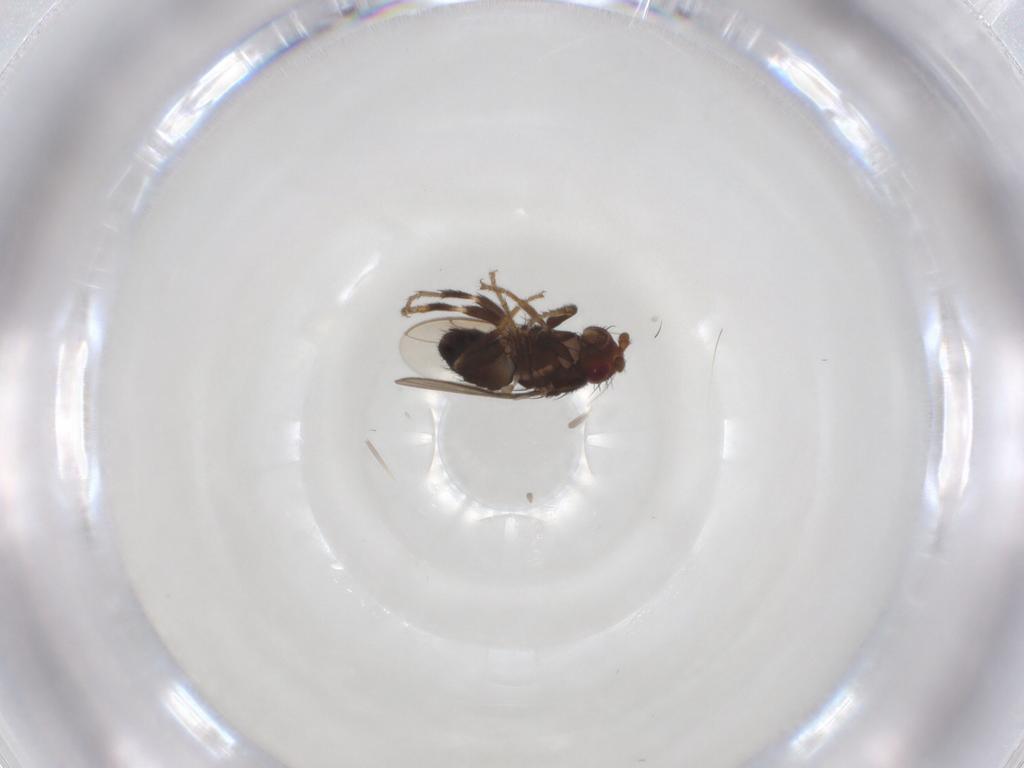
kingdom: Animalia
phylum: Arthropoda
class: Insecta
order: Diptera
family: Sphaeroceridae
